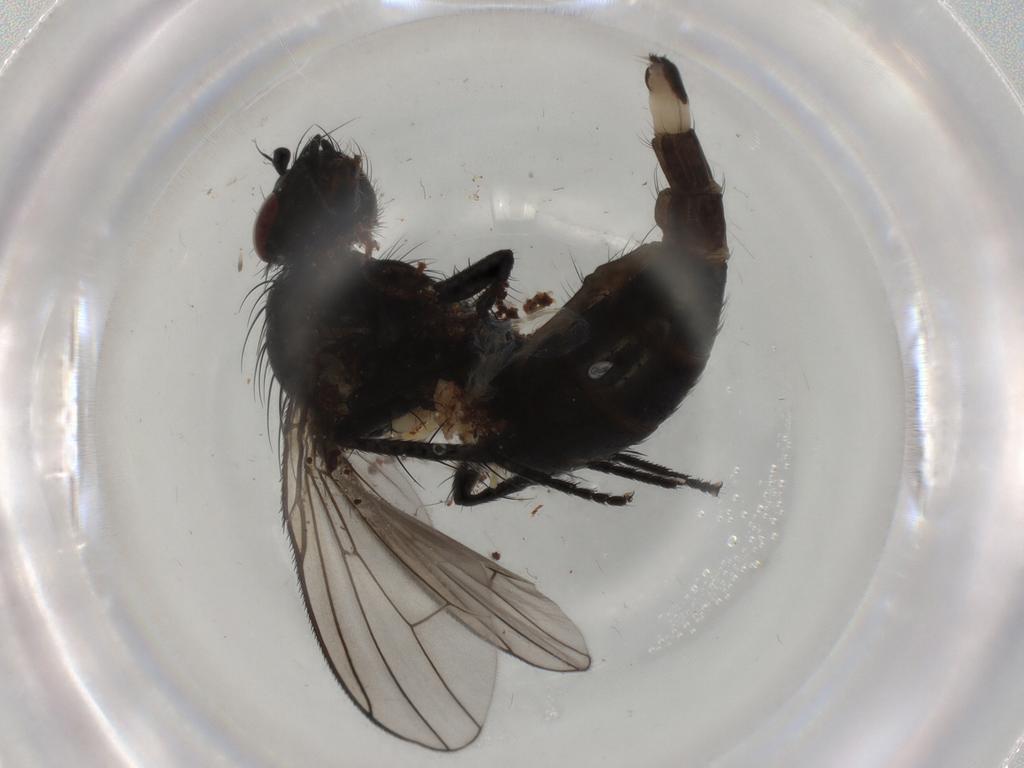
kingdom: Animalia
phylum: Arthropoda
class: Insecta
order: Diptera
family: Chironomidae
